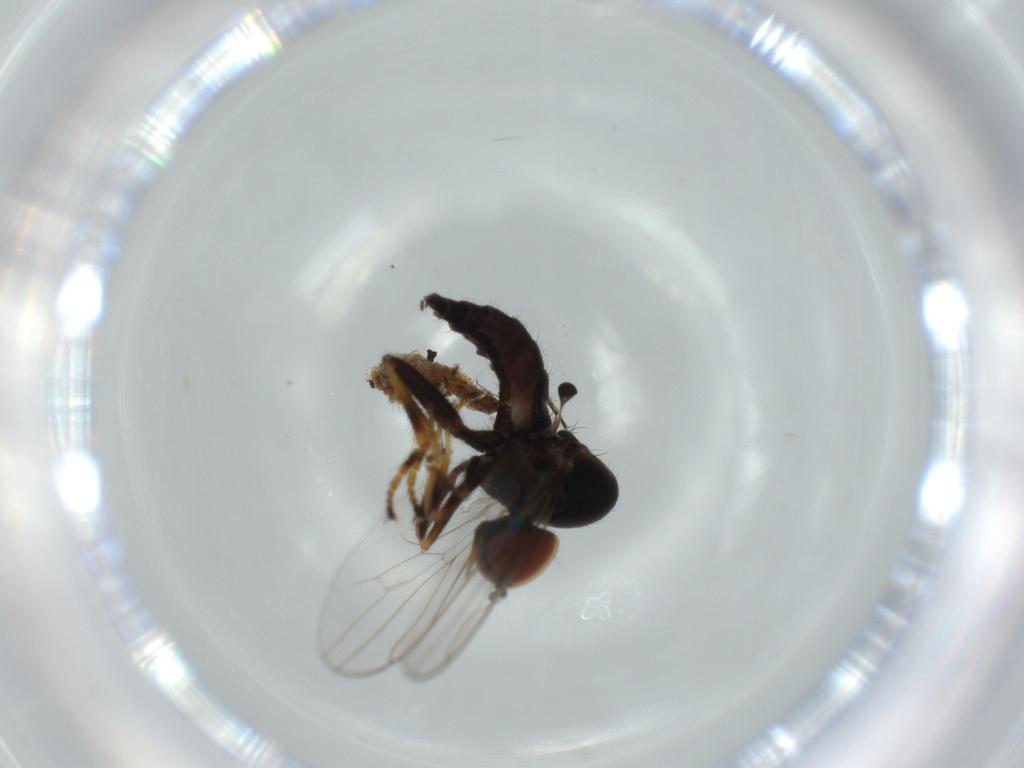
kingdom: Animalia
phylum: Arthropoda
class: Insecta
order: Diptera
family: Hybotidae
